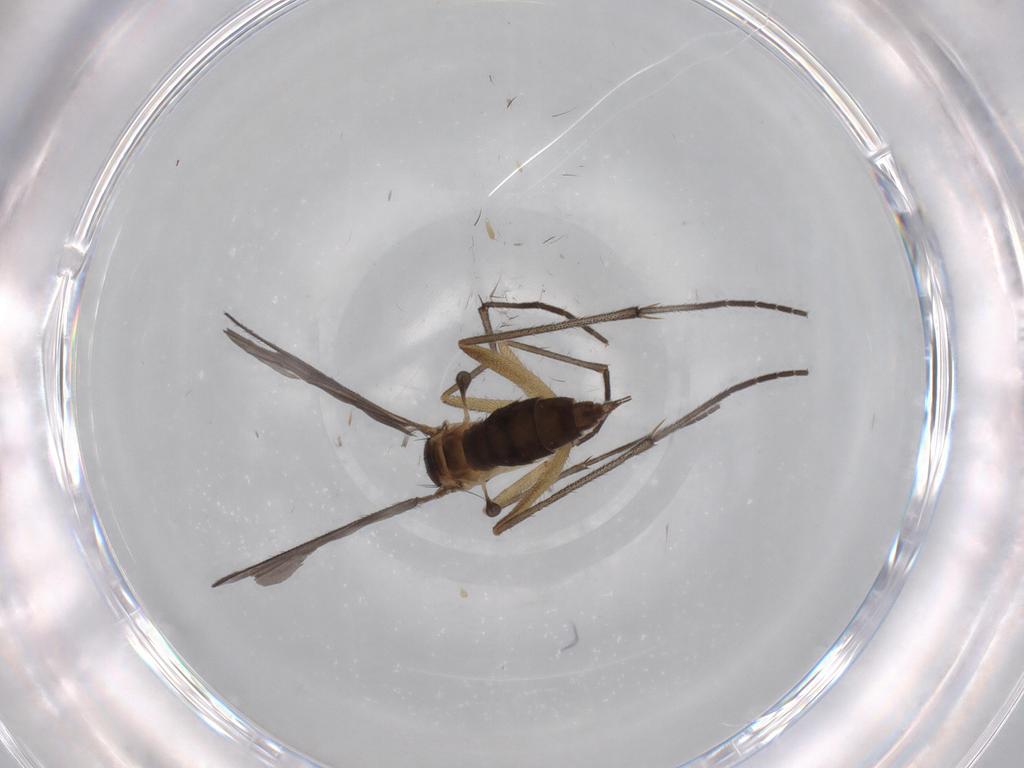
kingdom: Animalia
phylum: Arthropoda
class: Insecta
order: Diptera
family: Sciaridae
